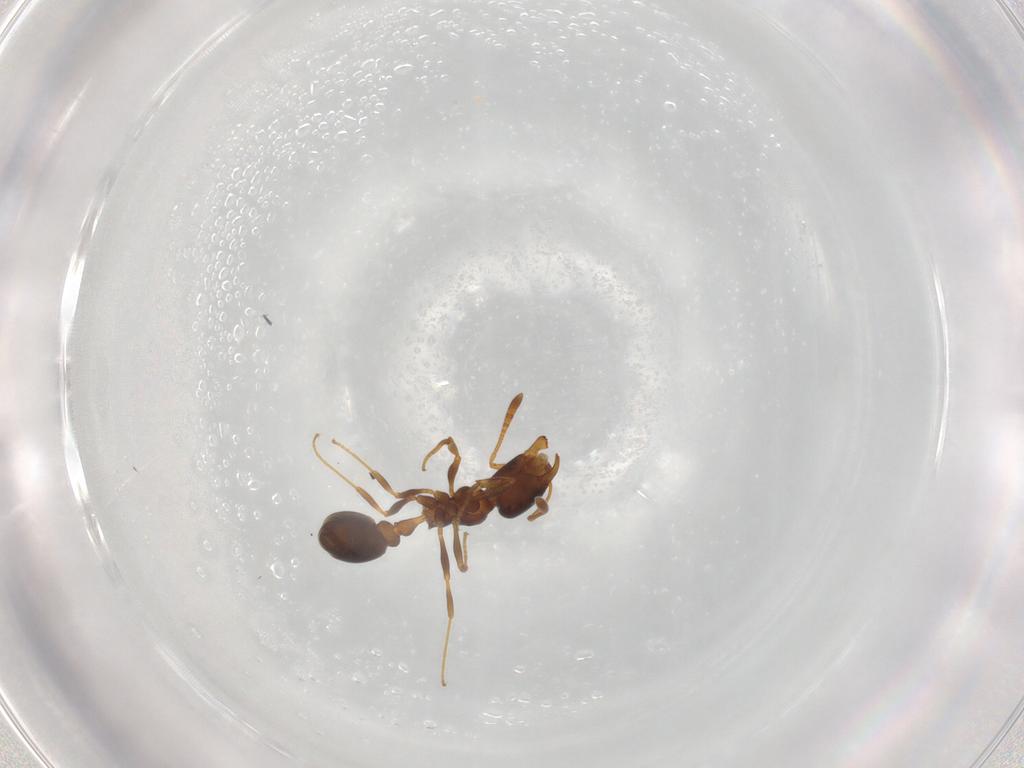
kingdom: Animalia
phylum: Arthropoda
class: Insecta
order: Hymenoptera
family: Formicidae
